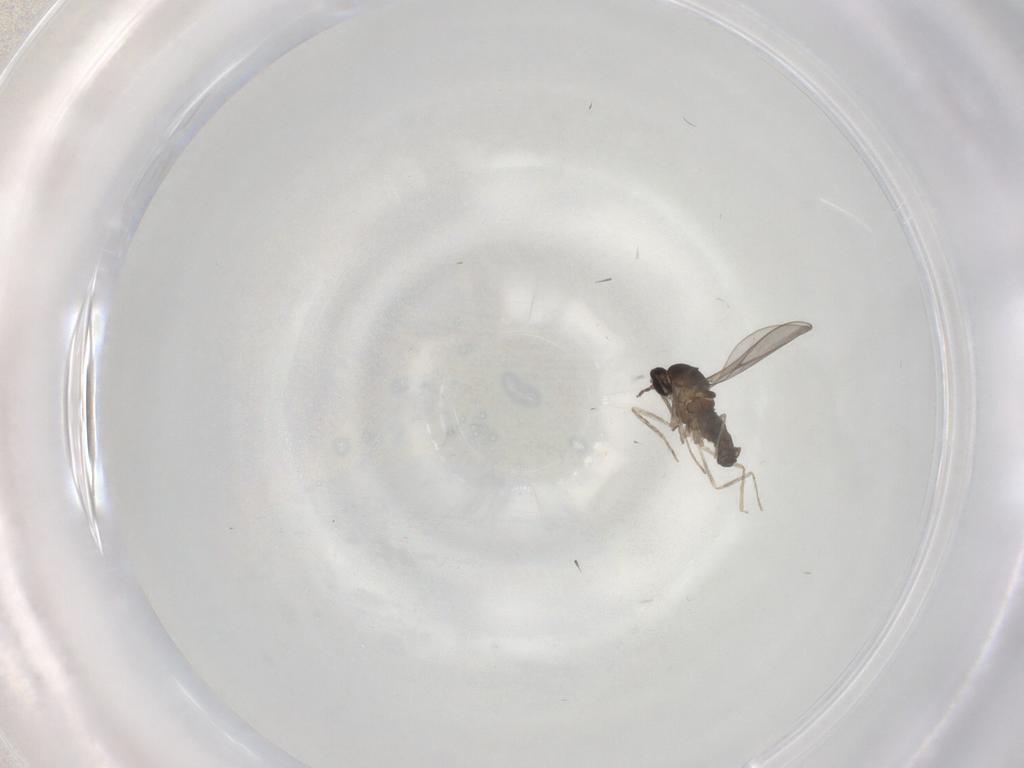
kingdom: Animalia
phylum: Arthropoda
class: Insecta
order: Diptera
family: Cecidomyiidae
